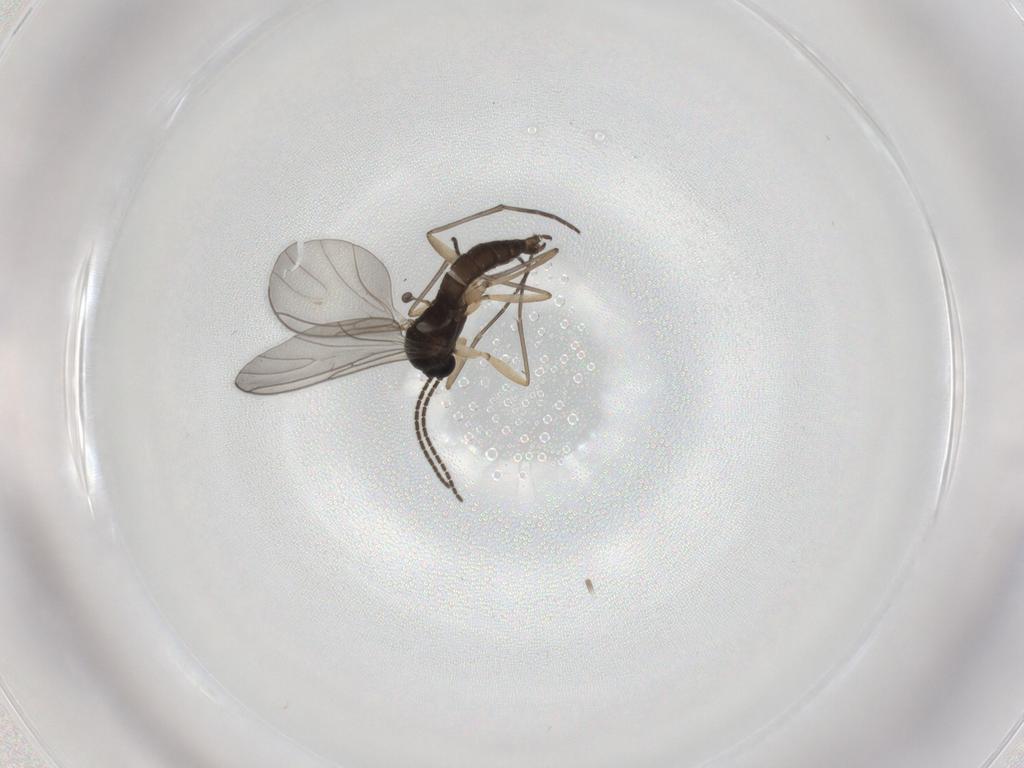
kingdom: Animalia
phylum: Arthropoda
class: Insecta
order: Diptera
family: Sciaridae
